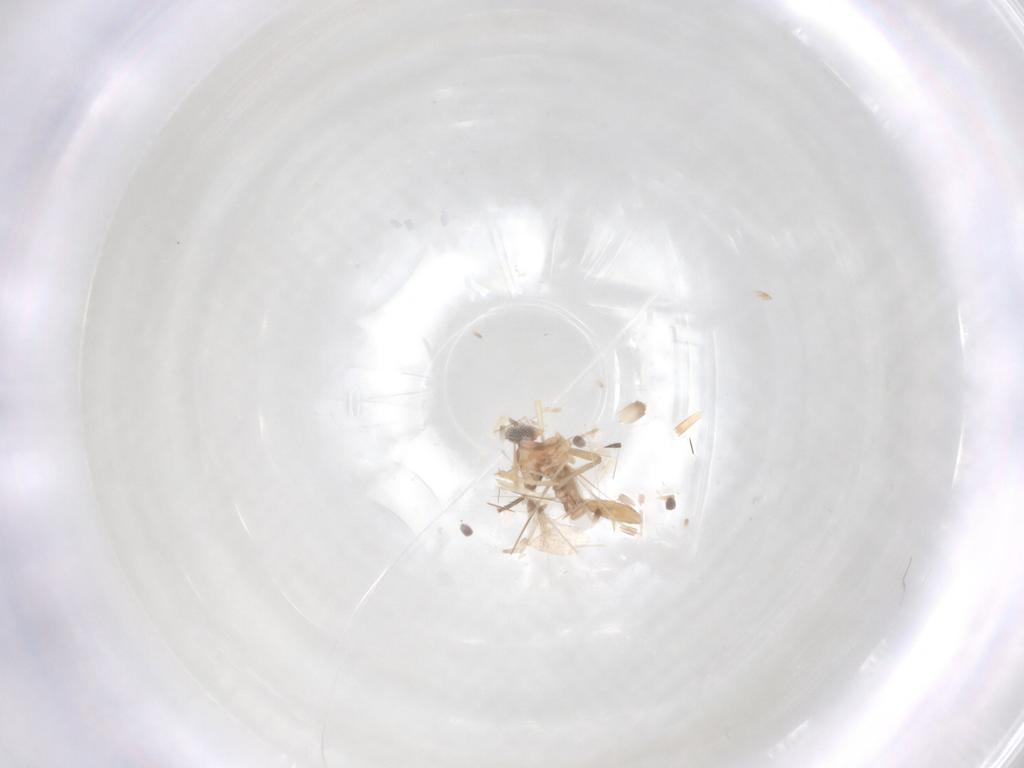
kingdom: Animalia
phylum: Arthropoda
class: Insecta
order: Diptera
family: Phoridae
